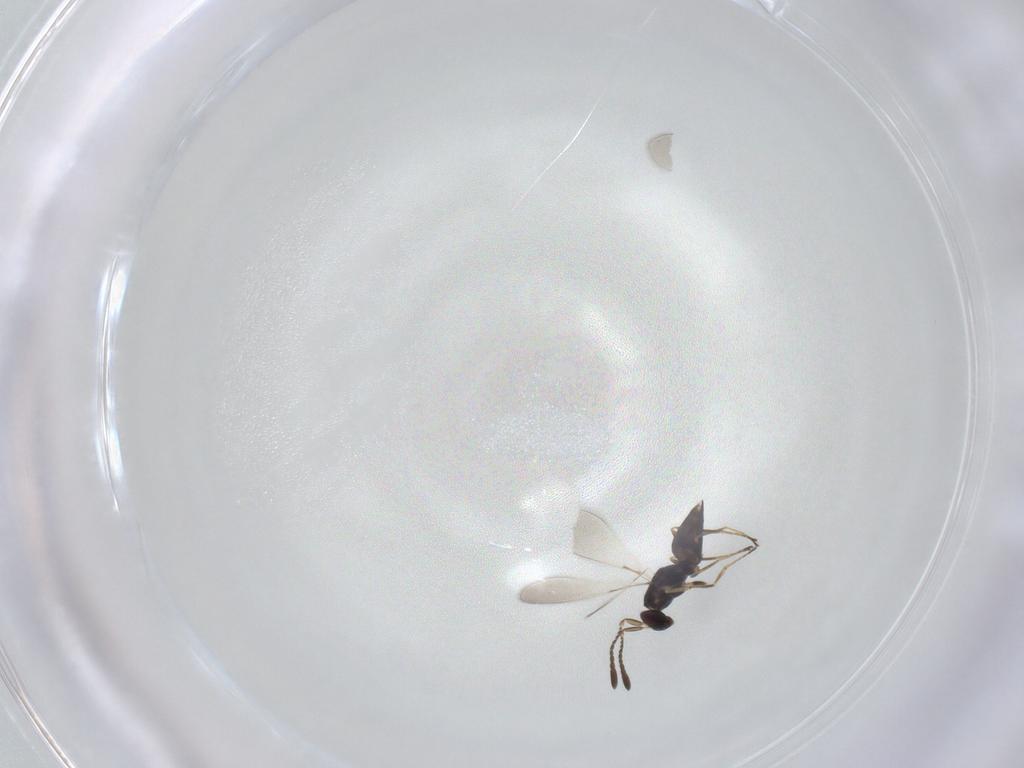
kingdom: Animalia
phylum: Arthropoda
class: Insecta
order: Hymenoptera
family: Mymaridae
